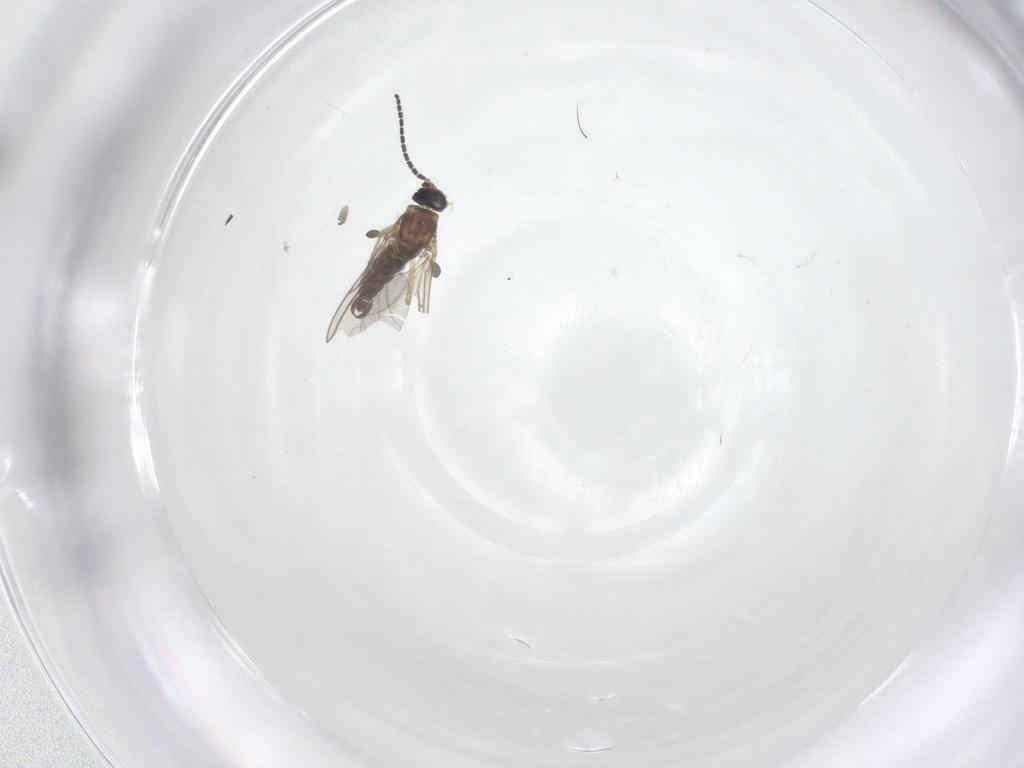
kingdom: Animalia
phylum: Arthropoda
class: Insecta
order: Diptera
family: Sciaridae
